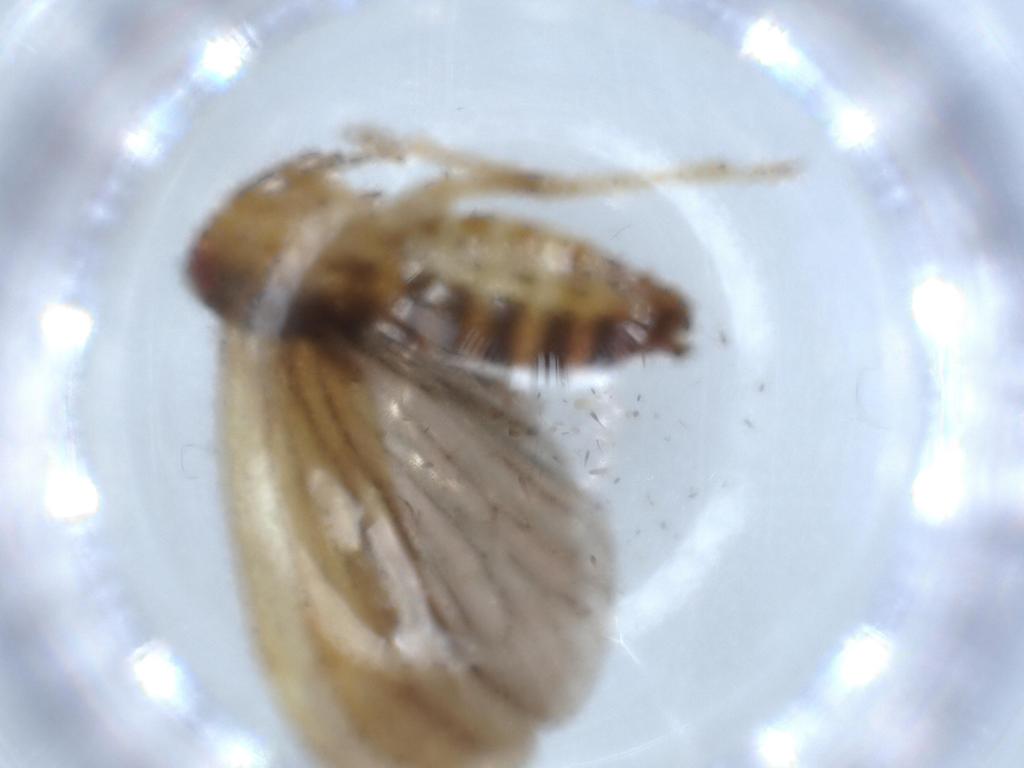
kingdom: Animalia
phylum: Arthropoda
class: Insecta
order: Hemiptera
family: Achilidae
